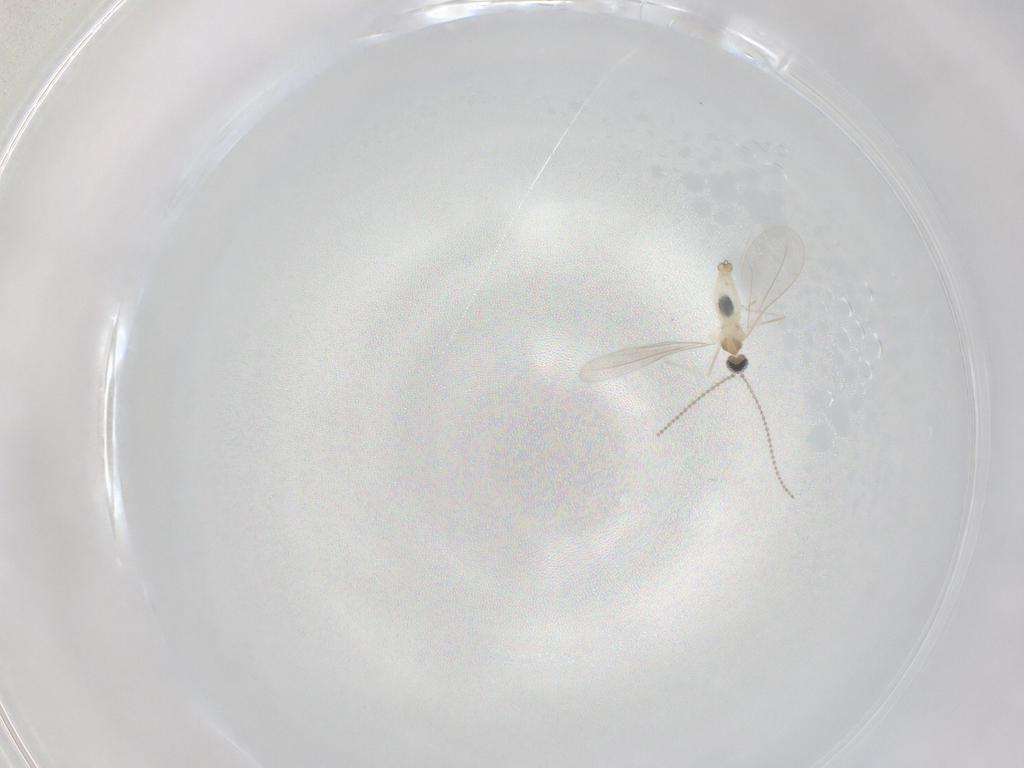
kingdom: Animalia
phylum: Arthropoda
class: Insecta
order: Diptera
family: Cecidomyiidae
